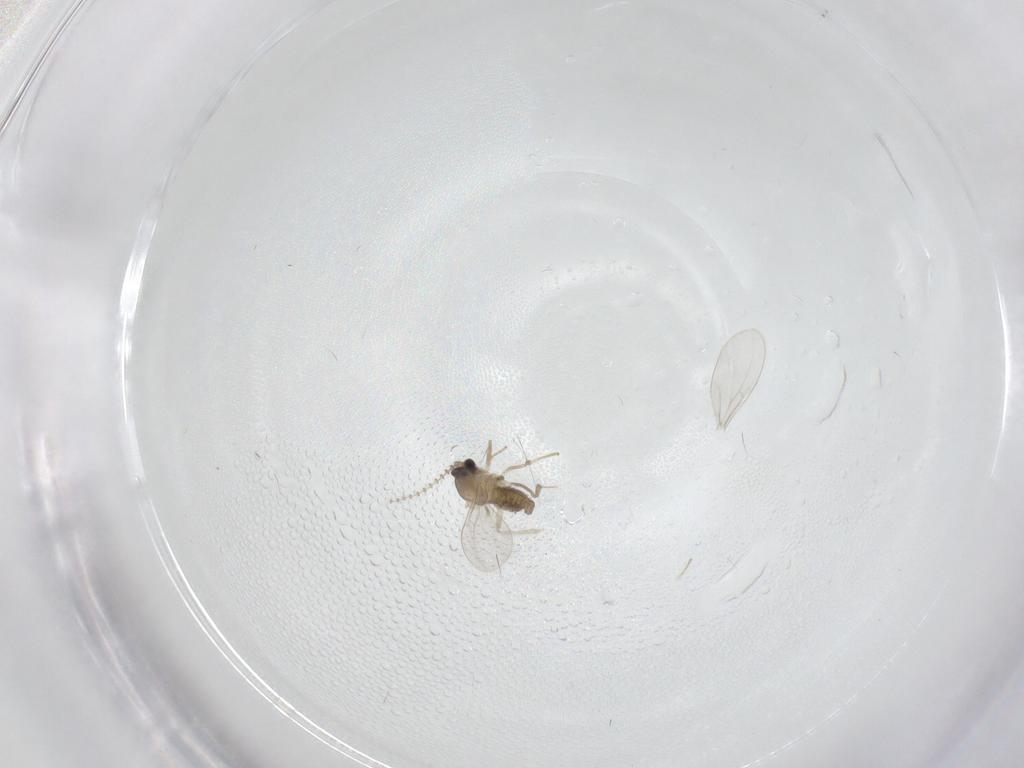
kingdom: Animalia
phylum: Arthropoda
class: Insecta
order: Diptera
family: Cecidomyiidae
